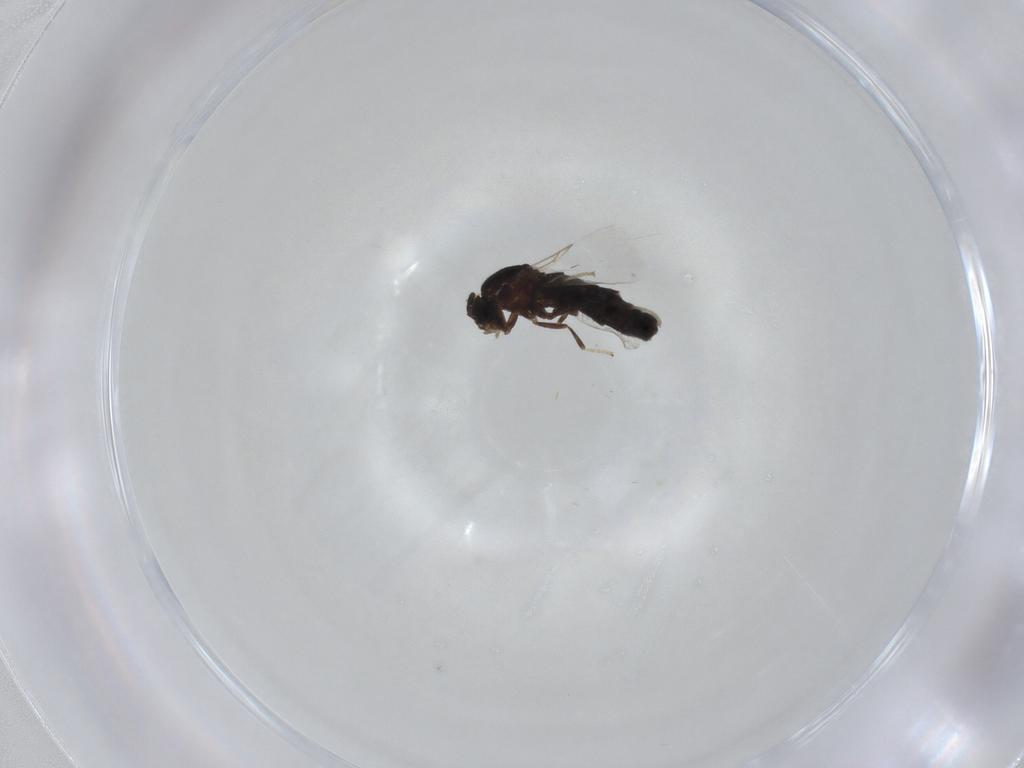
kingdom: Animalia
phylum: Arthropoda
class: Insecta
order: Diptera
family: Scatopsidae
